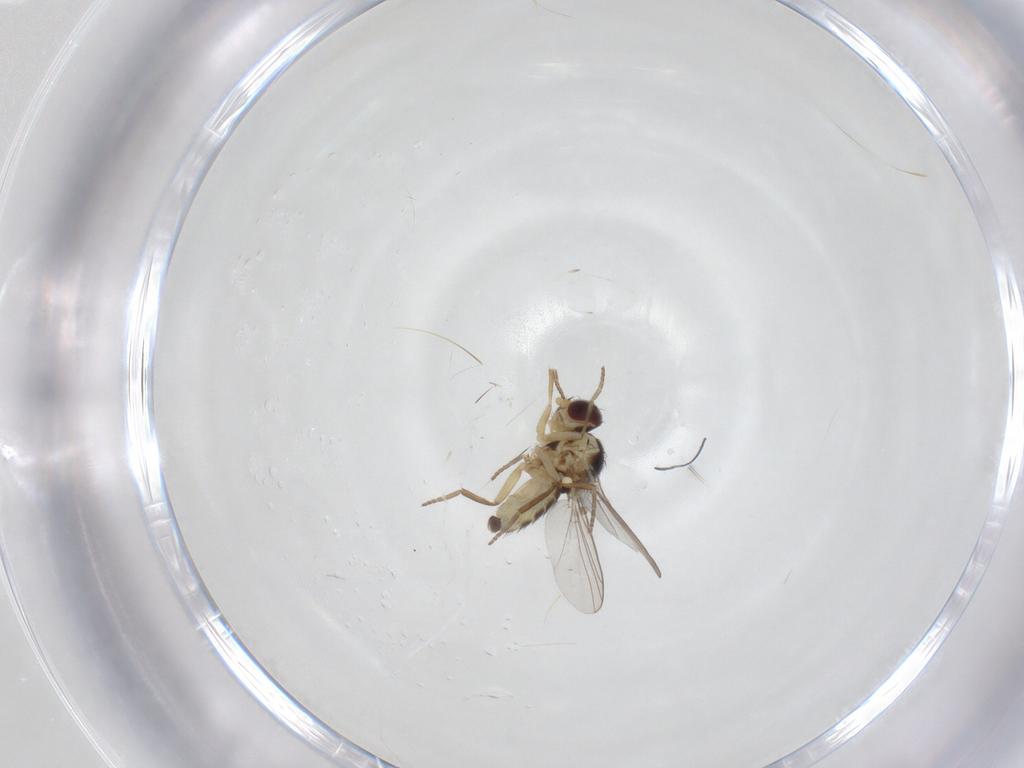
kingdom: Animalia
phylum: Arthropoda
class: Insecta
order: Diptera
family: Agromyzidae
